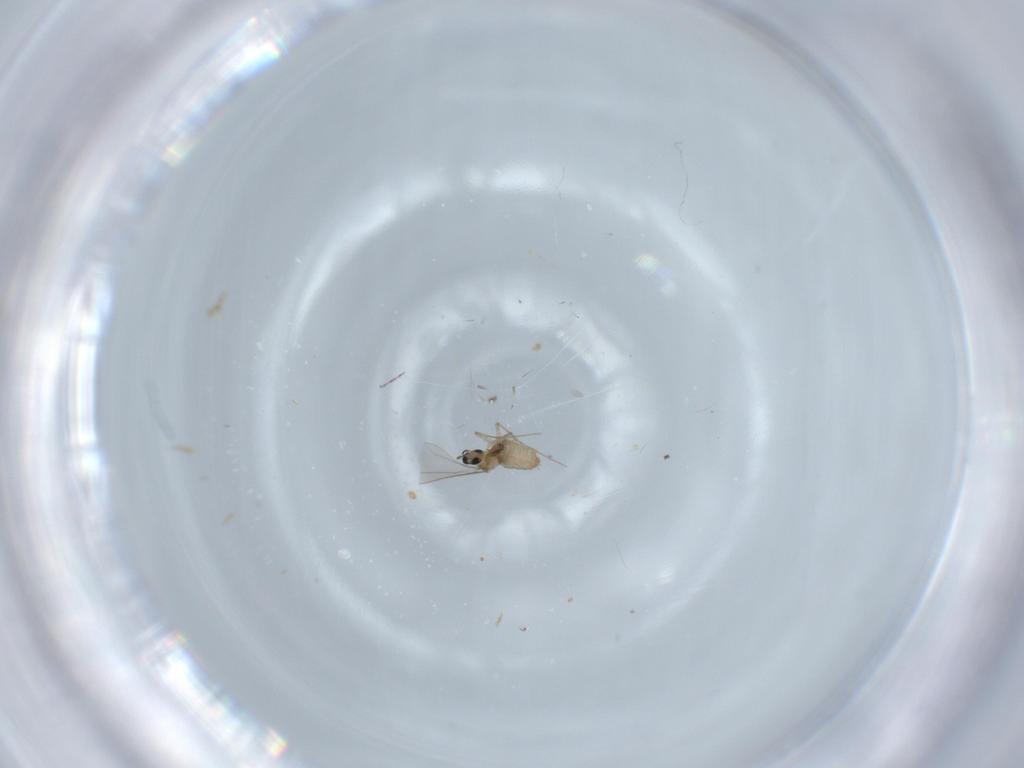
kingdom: Animalia
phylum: Arthropoda
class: Insecta
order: Diptera
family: Cecidomyiidae
